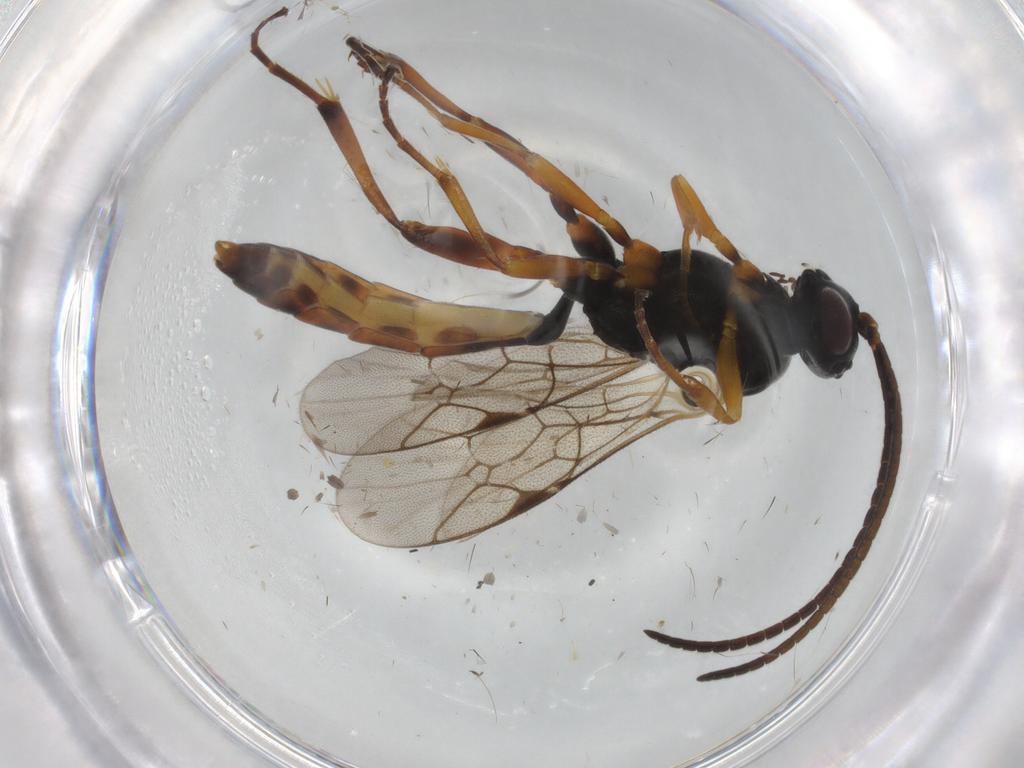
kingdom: Animalia
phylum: Arthropoda
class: Insecta
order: Hymenoptera
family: Ichneumonidae
